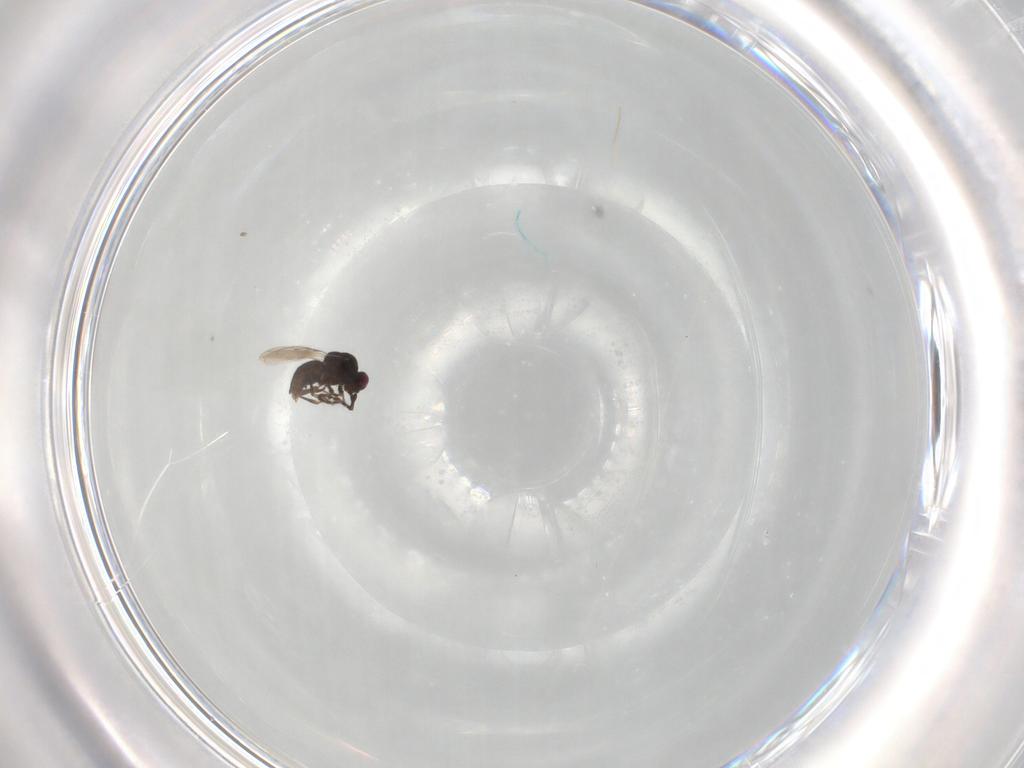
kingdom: Animalia
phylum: Arthropoda
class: Insecta
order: Hymenoptera
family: Ceraphronidae
